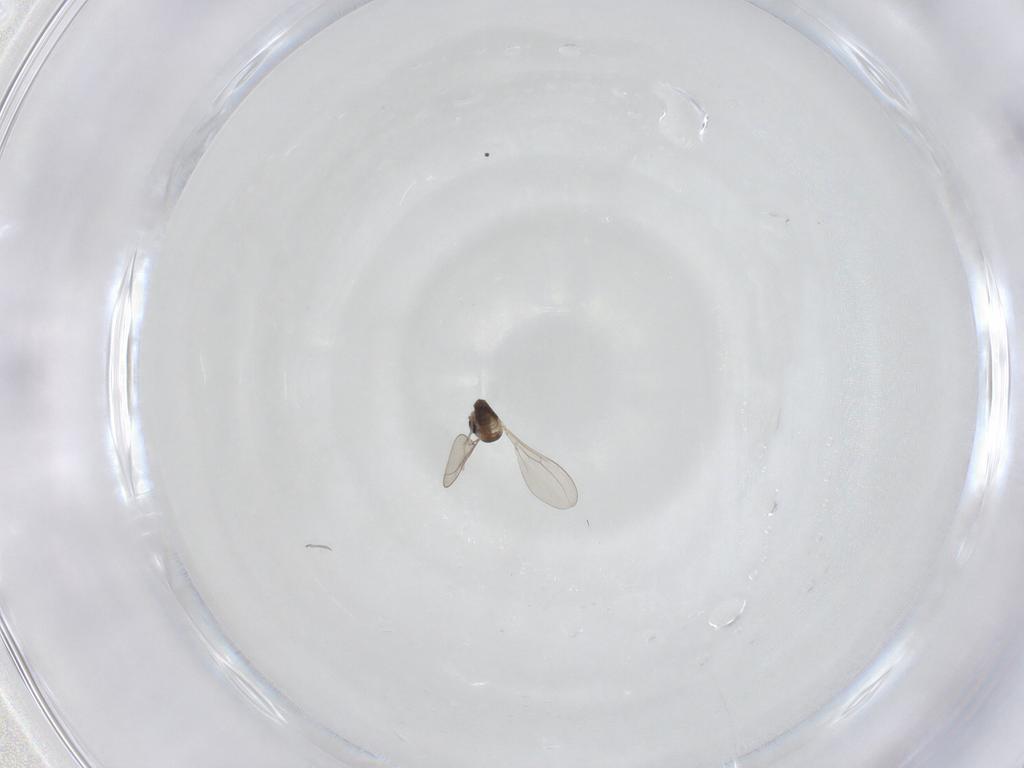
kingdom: Animalia
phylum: Arthropoda
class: Insecta
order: Diptera
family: Cecidomyiidae
